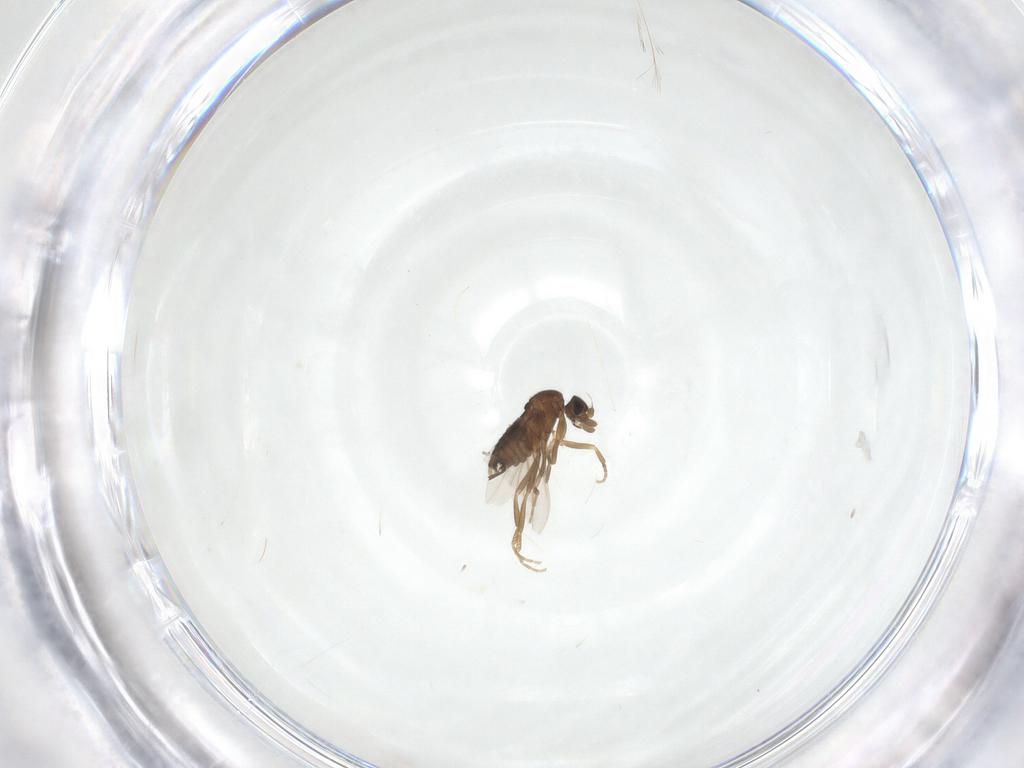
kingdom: Animalia
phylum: Arthropoda
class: Insecta
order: Diptera
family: Phoridae
